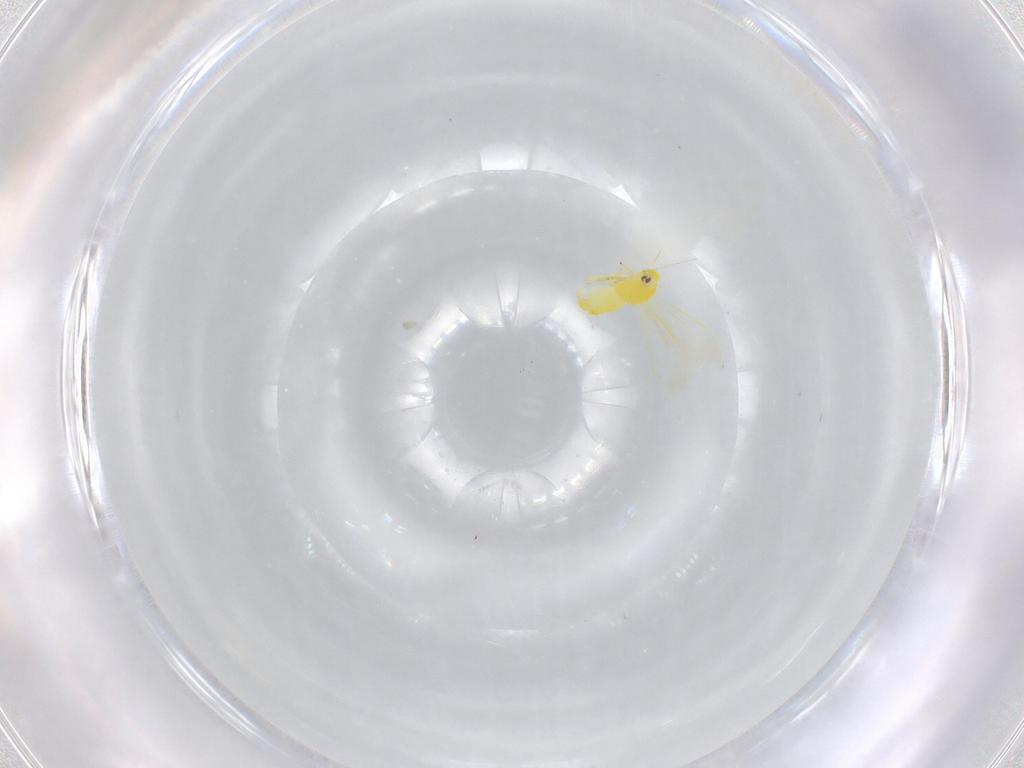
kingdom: Animalia
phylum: Arthropoda
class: Insecta
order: Hemiptera
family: Aleyrodidae
